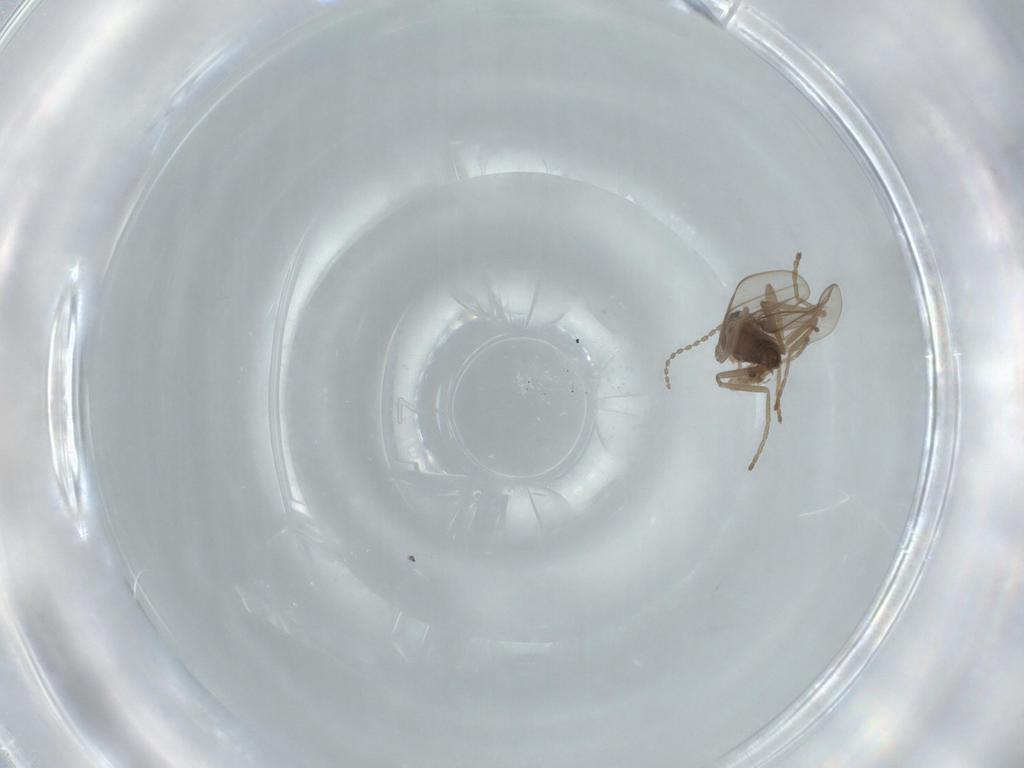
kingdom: Animalia
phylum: Arthropoda
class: Insecta
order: Diptera
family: Cecidomyiidae
